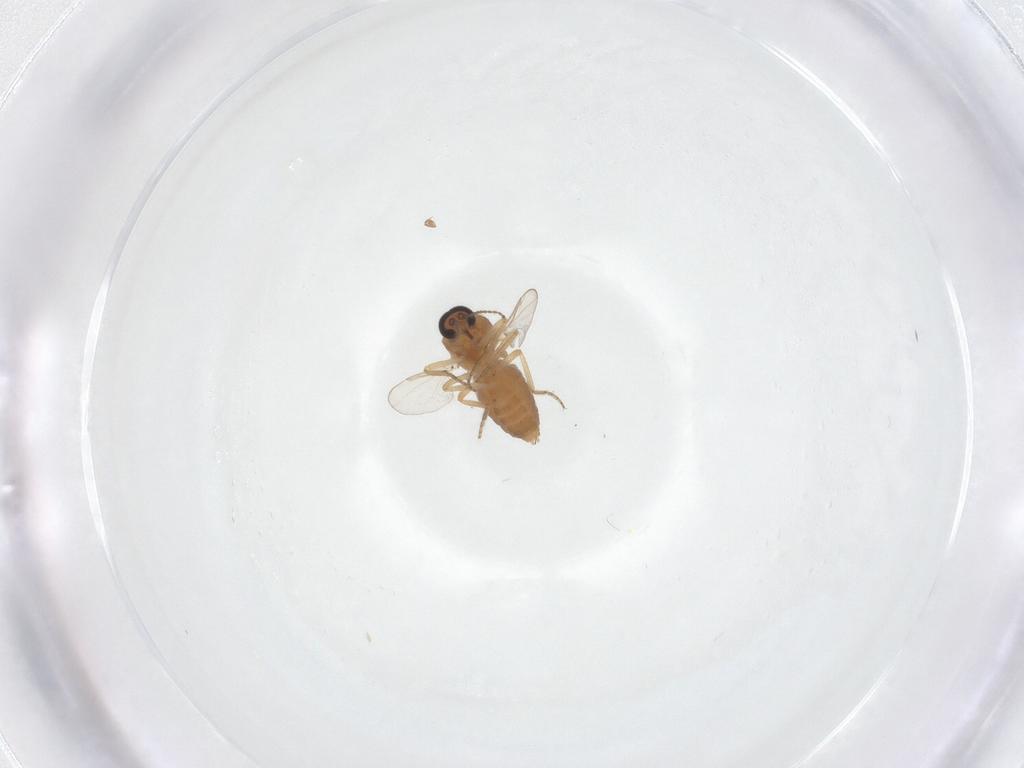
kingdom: Animalia
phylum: Arthropoda
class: Insecta
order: Diptera
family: Ceratopogonidae
